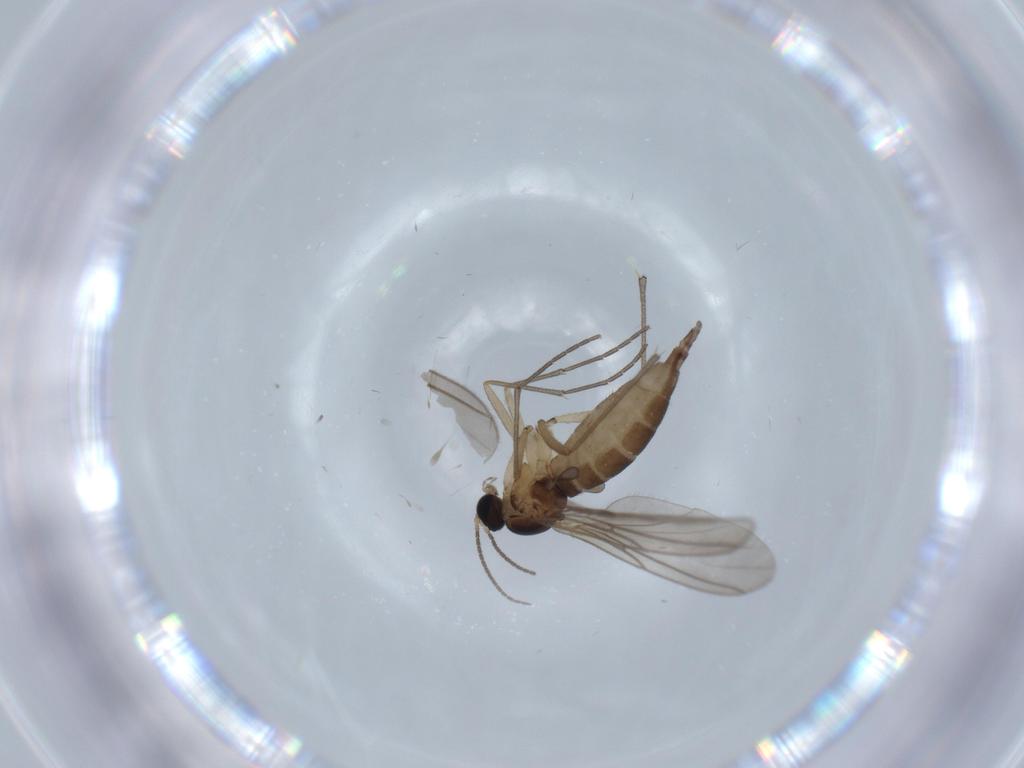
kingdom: Animalia
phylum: Arthropoda
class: Insecta
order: Diptera
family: Sciaridae
